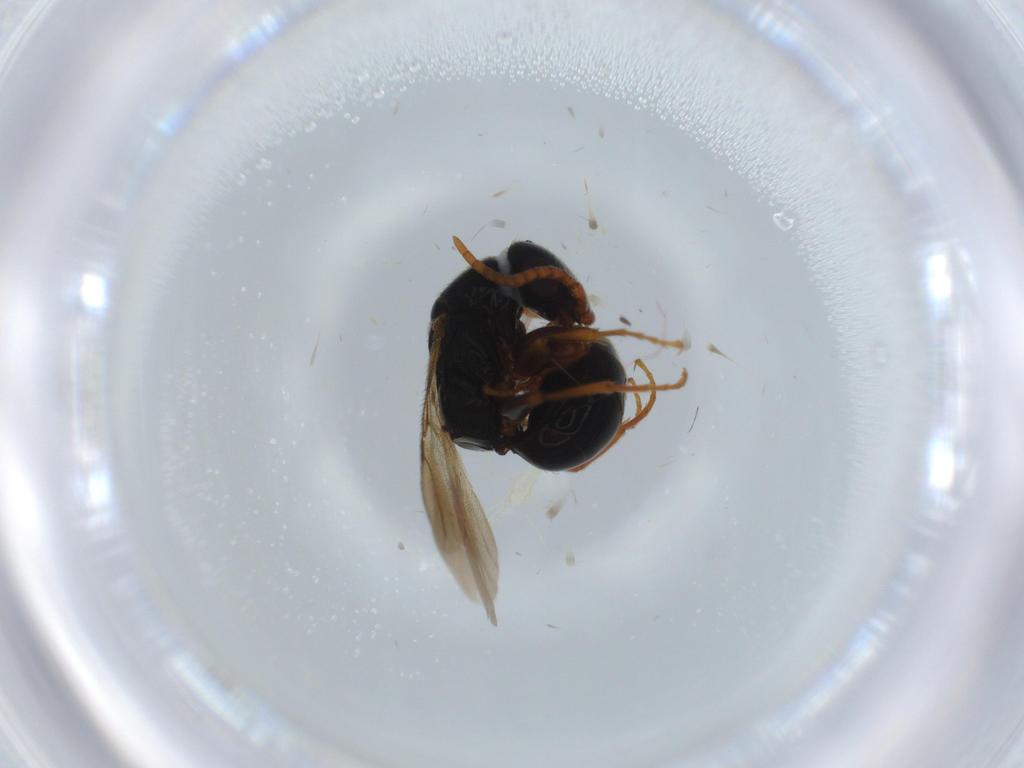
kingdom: Animalia
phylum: Arthropoda
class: Insecta
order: Hymenoptera
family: Bethylidae
